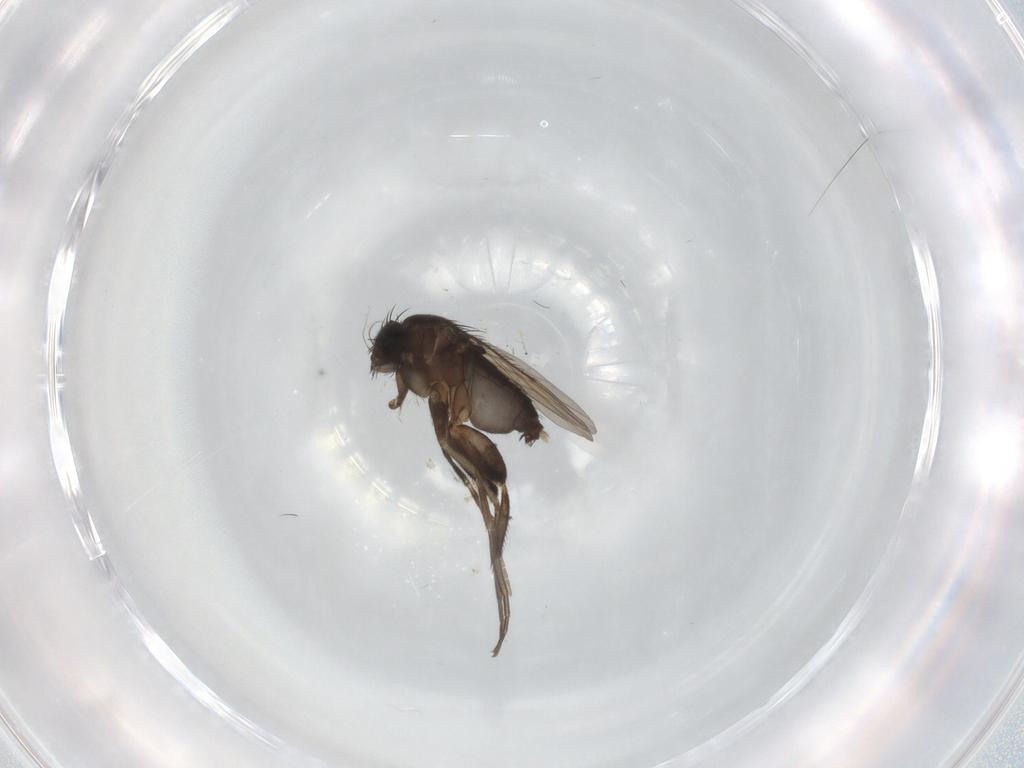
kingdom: Animalia
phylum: Arthropoda
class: Insecta
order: Diptera
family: Phoridae
